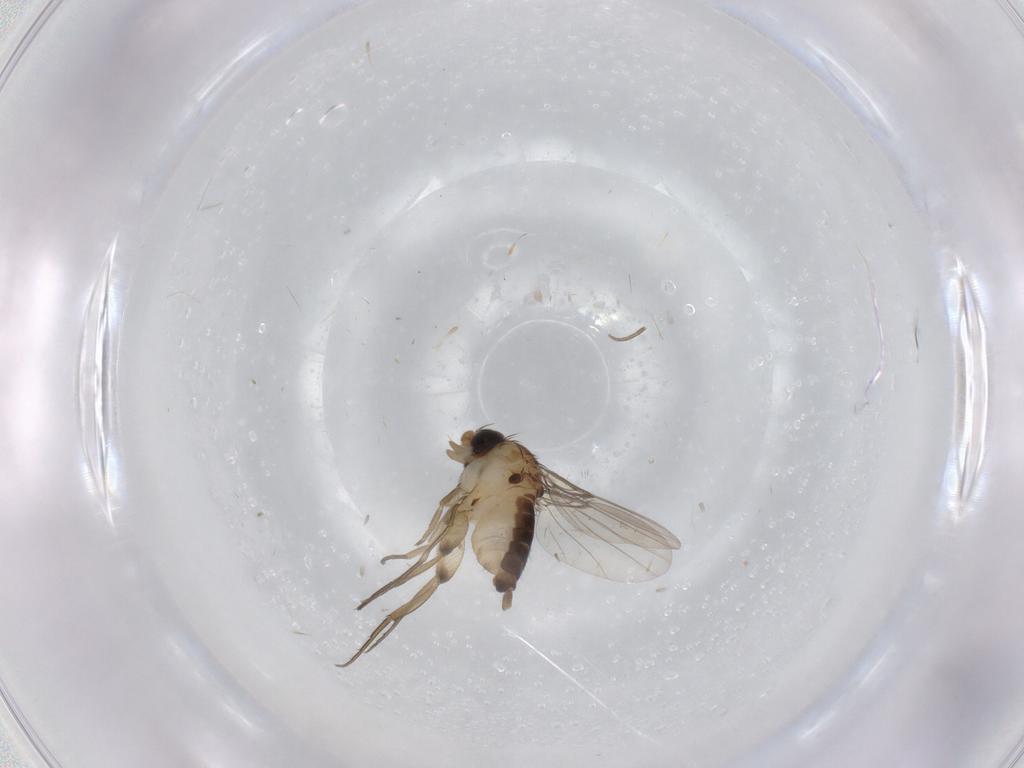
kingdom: Animalia
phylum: Arthropoda
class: Insecta
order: Diptera
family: Phoridae
